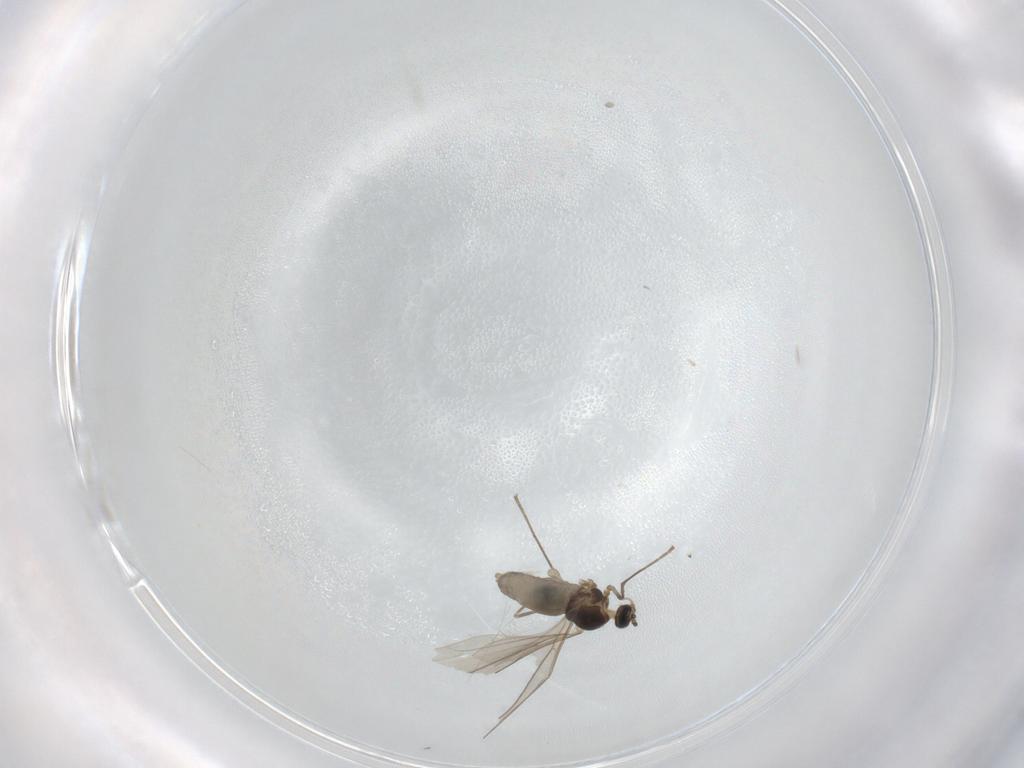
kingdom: Animalia
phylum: Arthropoda
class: Insecta
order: Diptera
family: Cecidomyiidae
